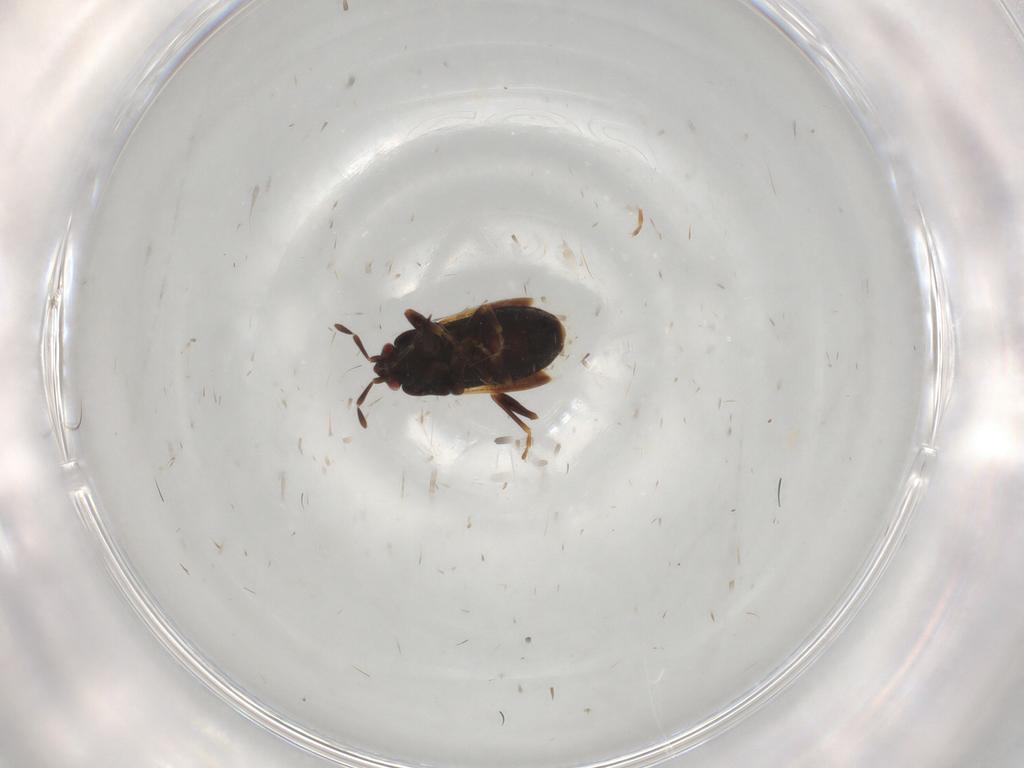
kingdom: Animalia
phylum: Arthropoda
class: Insecta
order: Hemiptera
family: Rhyparochromidae
